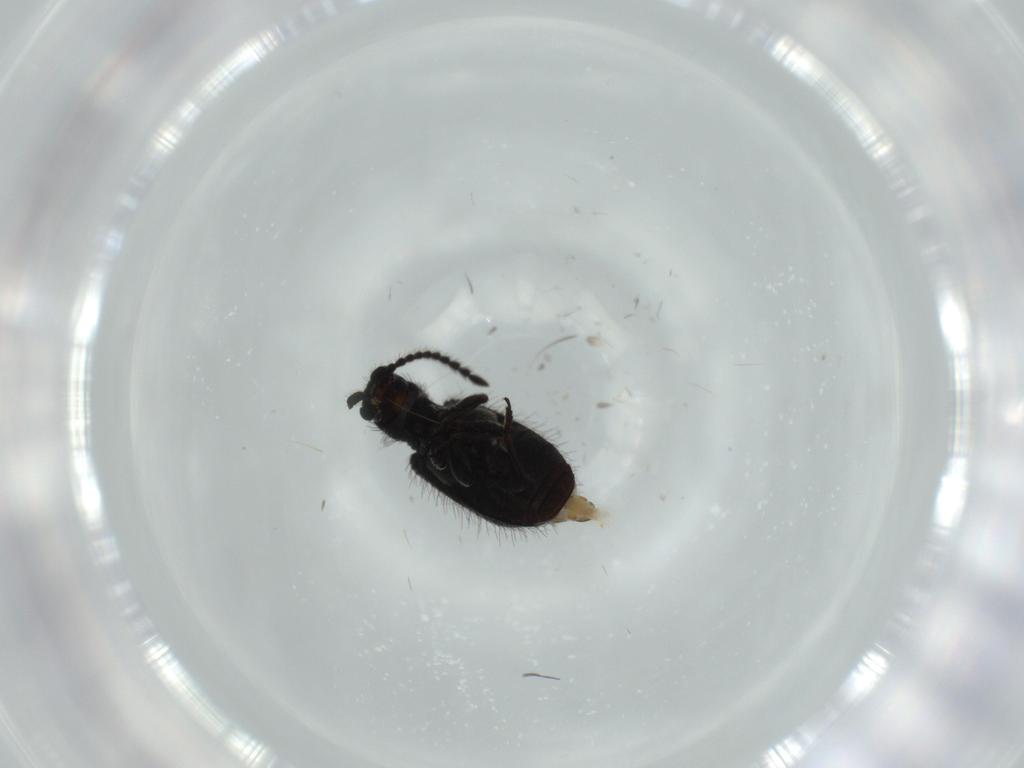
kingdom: Animalia
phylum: Arthropoda
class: Insecta
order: Coleoptera
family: Ptinidae
